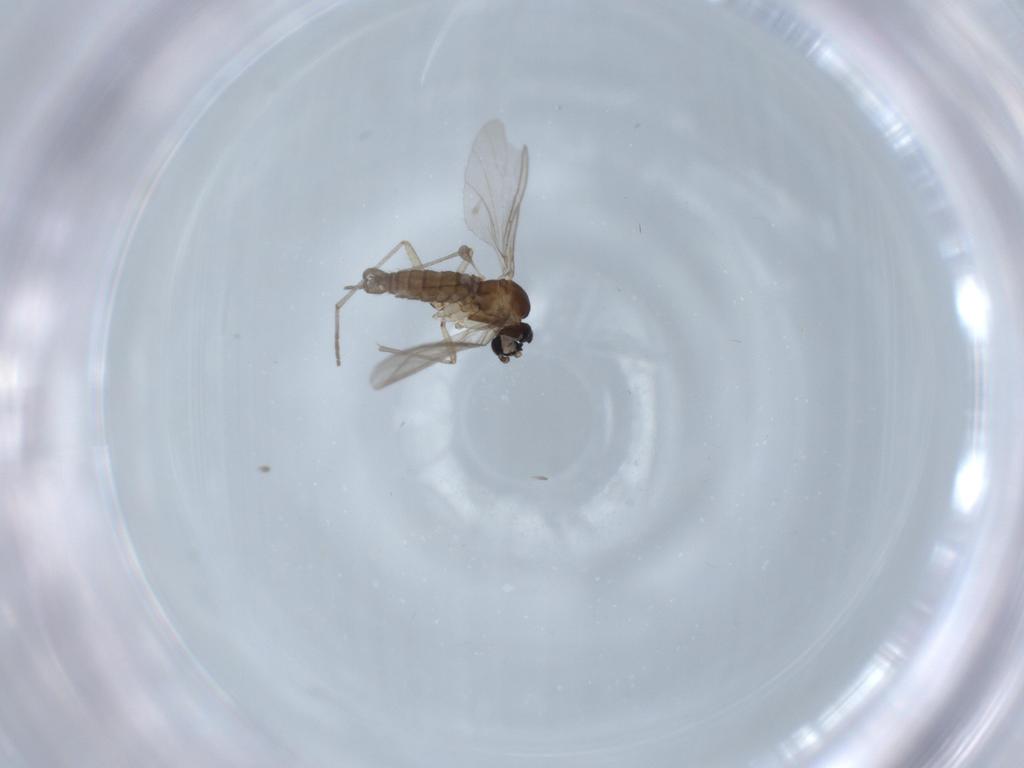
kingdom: Animalia
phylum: Arthropoda
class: Insecta
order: Diptera
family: Sciaridae
